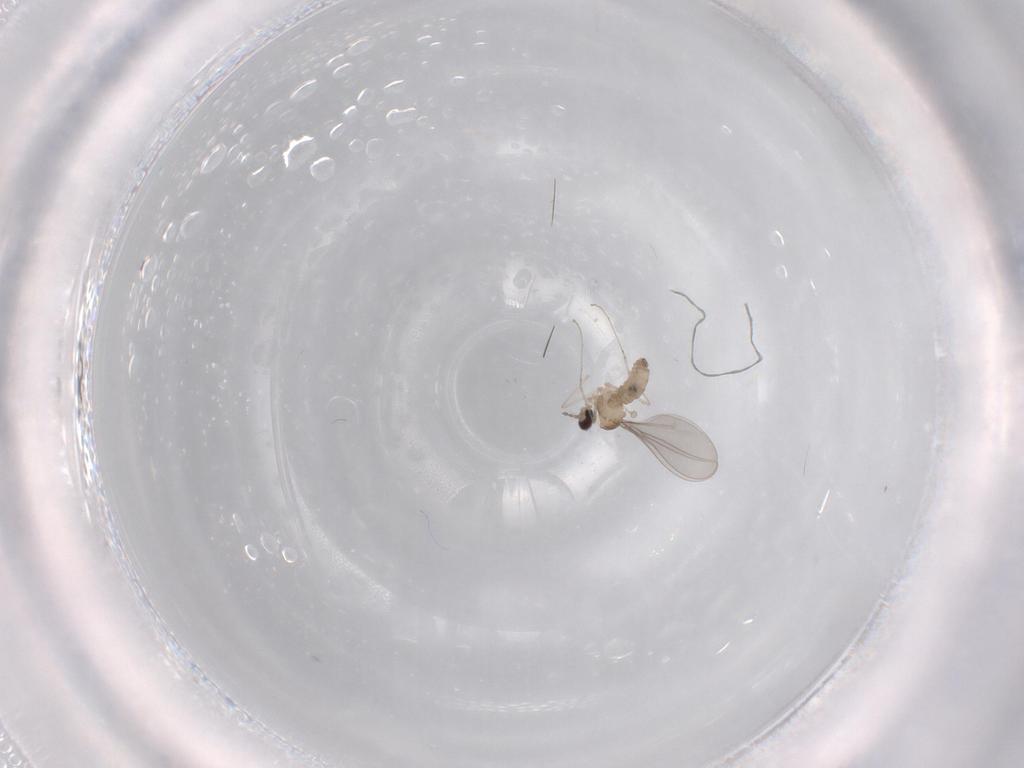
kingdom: Animalia
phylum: Arthropoda
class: Insecta
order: Diptera
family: Cecidomyiidae
